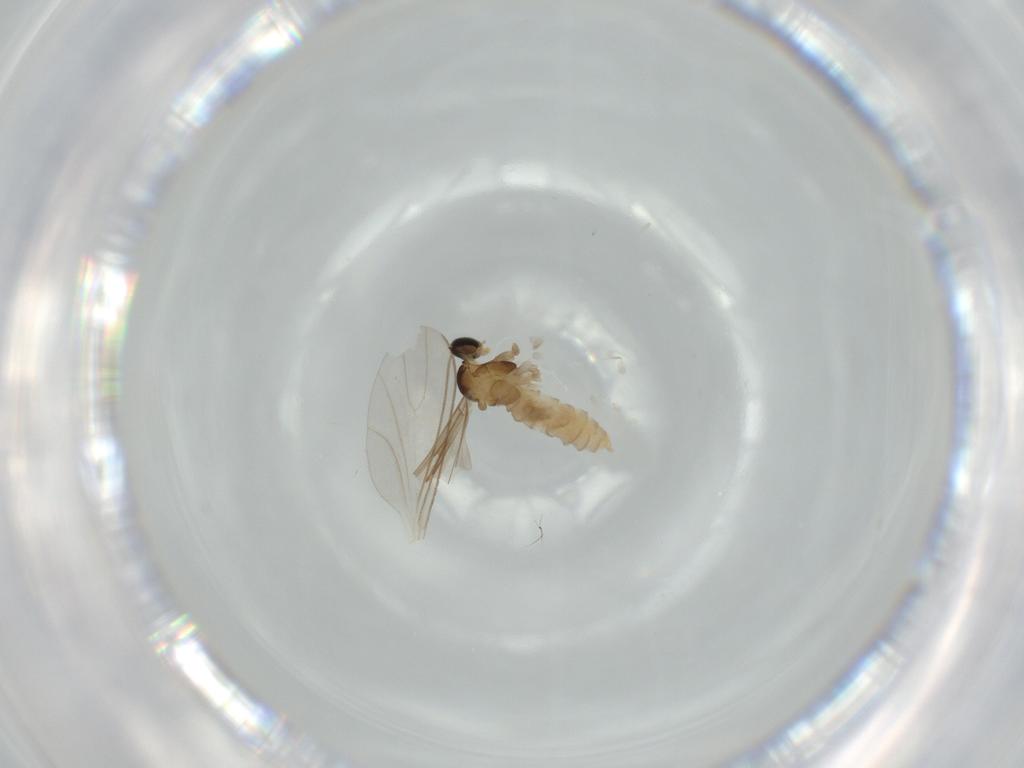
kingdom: Animalia
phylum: Arthropoda
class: Insecta
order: Diptera
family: Cecidomyiidae
